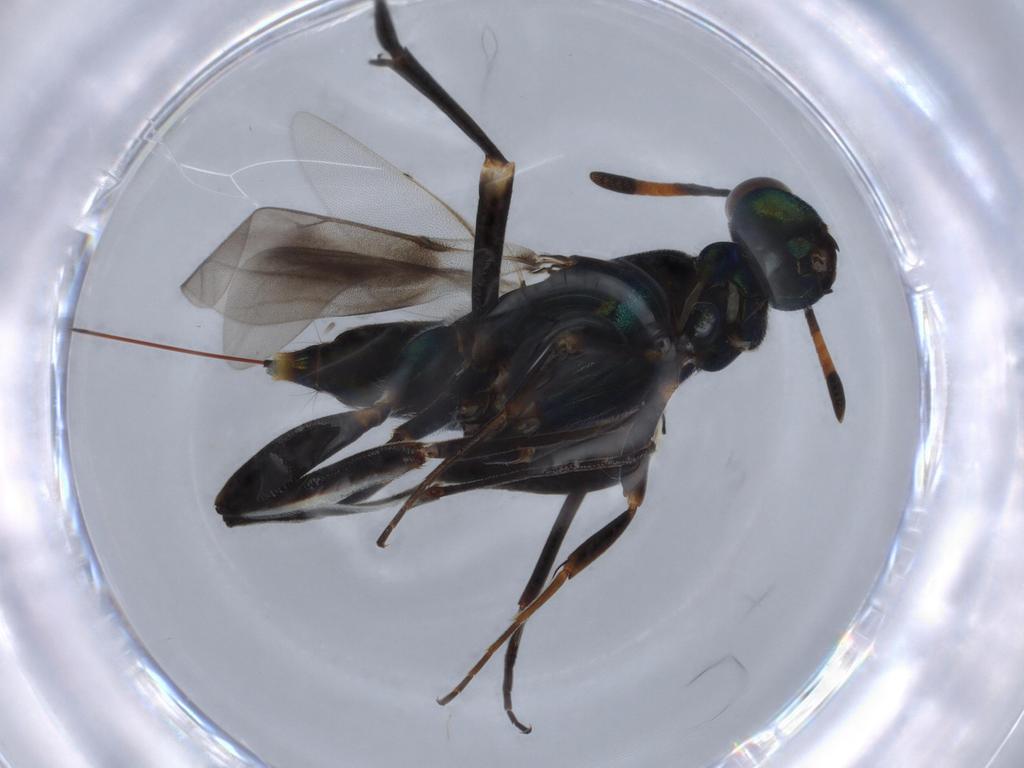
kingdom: Animalia
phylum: Arthropoda
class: Insecta
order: Hymenoptera
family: Eupelmidae
